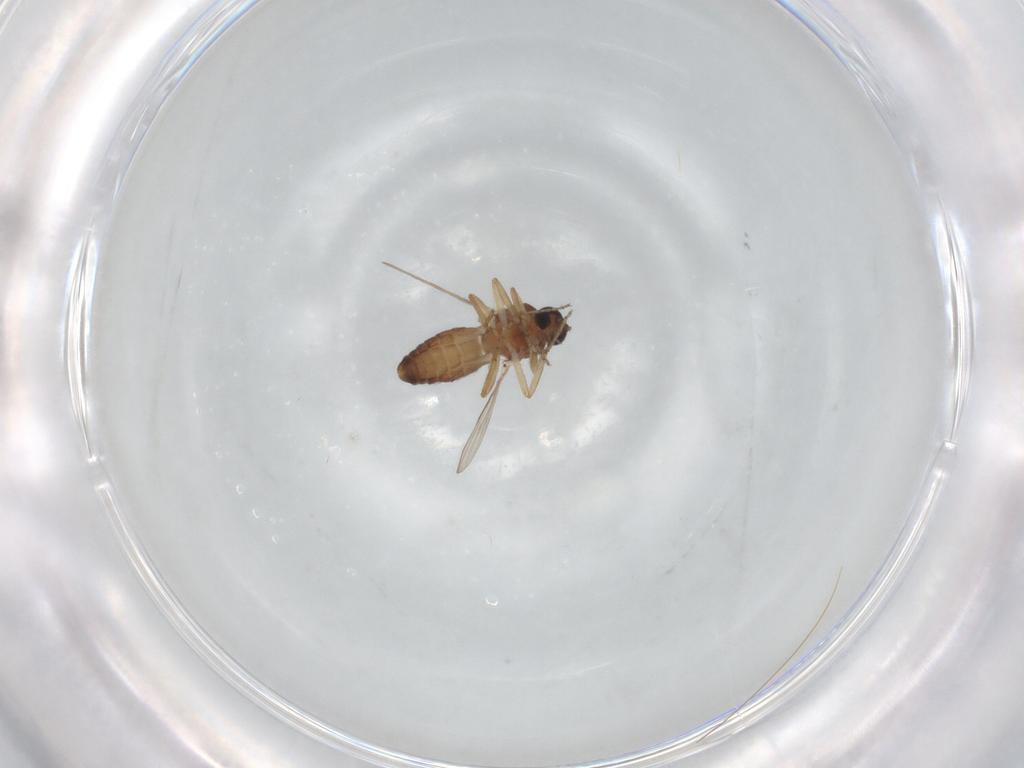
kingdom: Animalia
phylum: Arthropoda
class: Insecta
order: Diptera
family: Sciaridae
